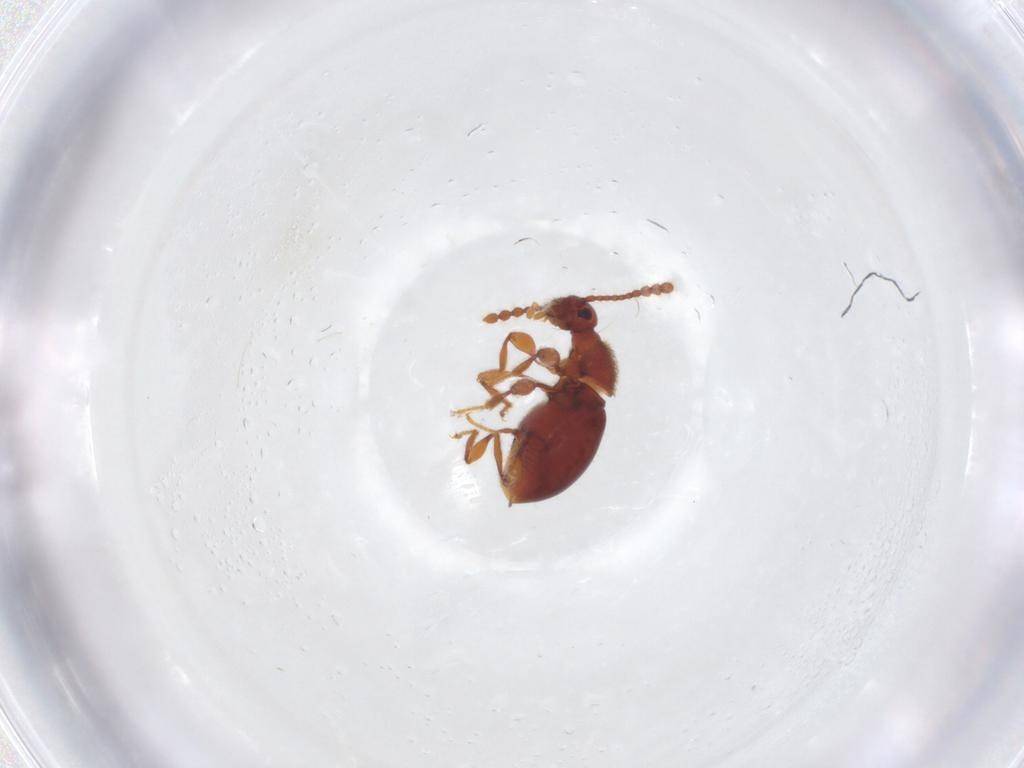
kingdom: Animalia
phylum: Arthropoda
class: Insecta
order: Coleoptera
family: Staphylinidae
